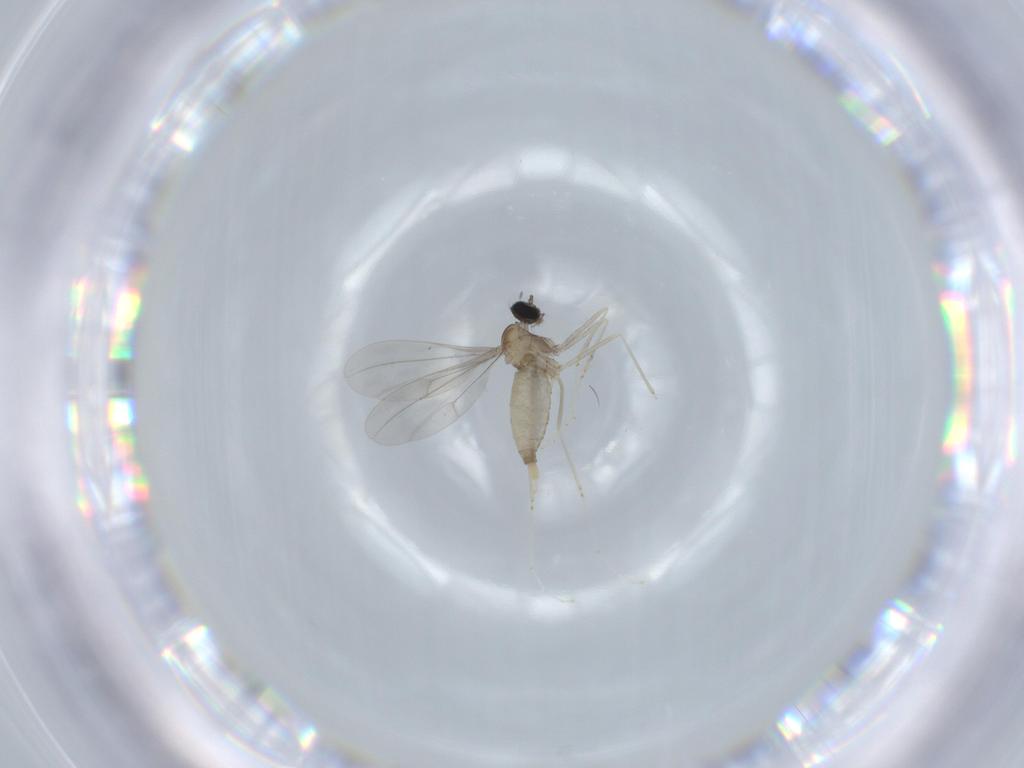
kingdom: Animalia
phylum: Arthropoda
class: Insecta
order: Diptera
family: Cecidomyiidae
